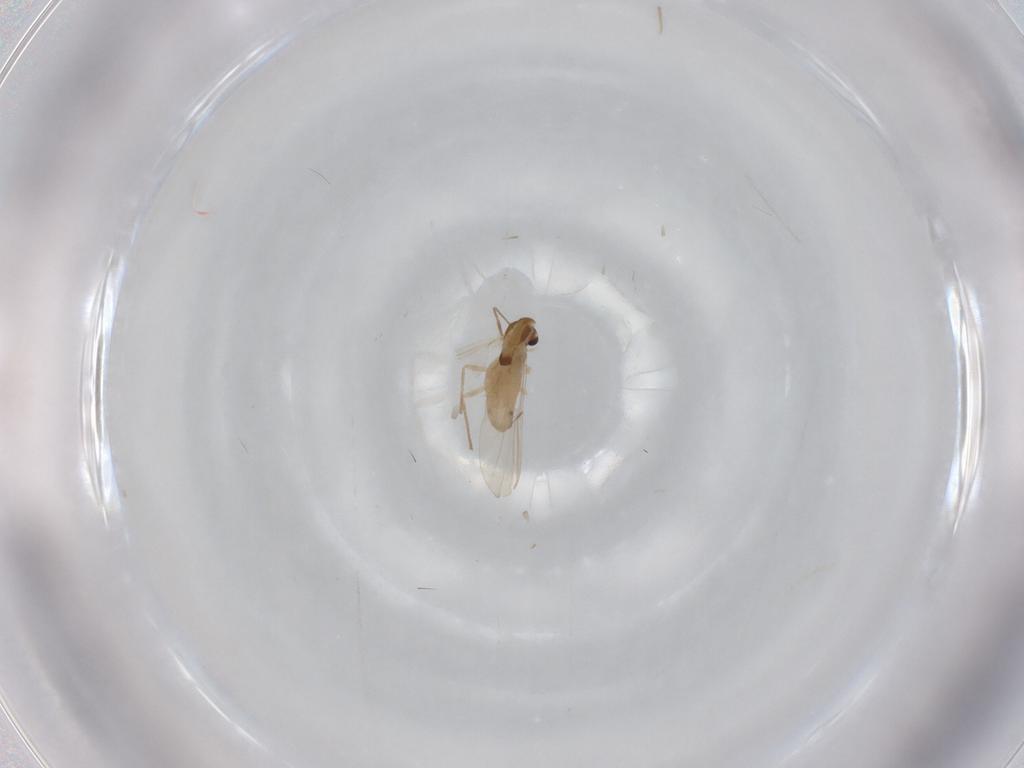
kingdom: Animalia
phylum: Arthropoda
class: Insecta
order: Diptera
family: Chironomidae
